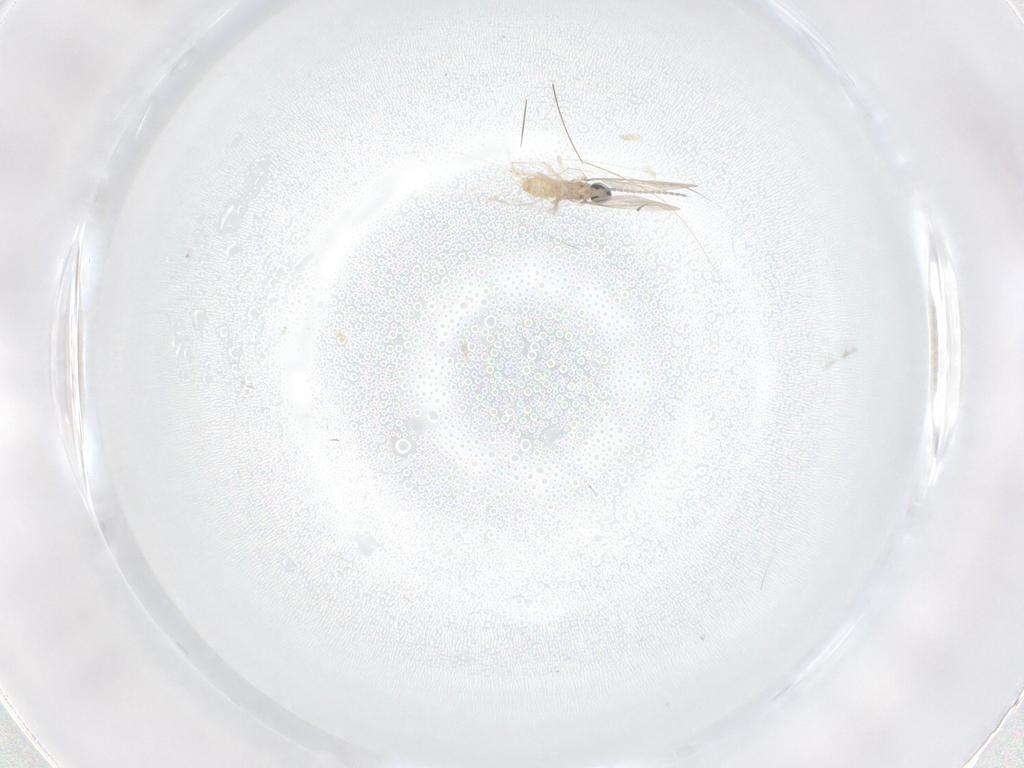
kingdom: Animalia
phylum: Arthropoda
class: Insecta
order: Diptera
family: Cecidomyiidae
